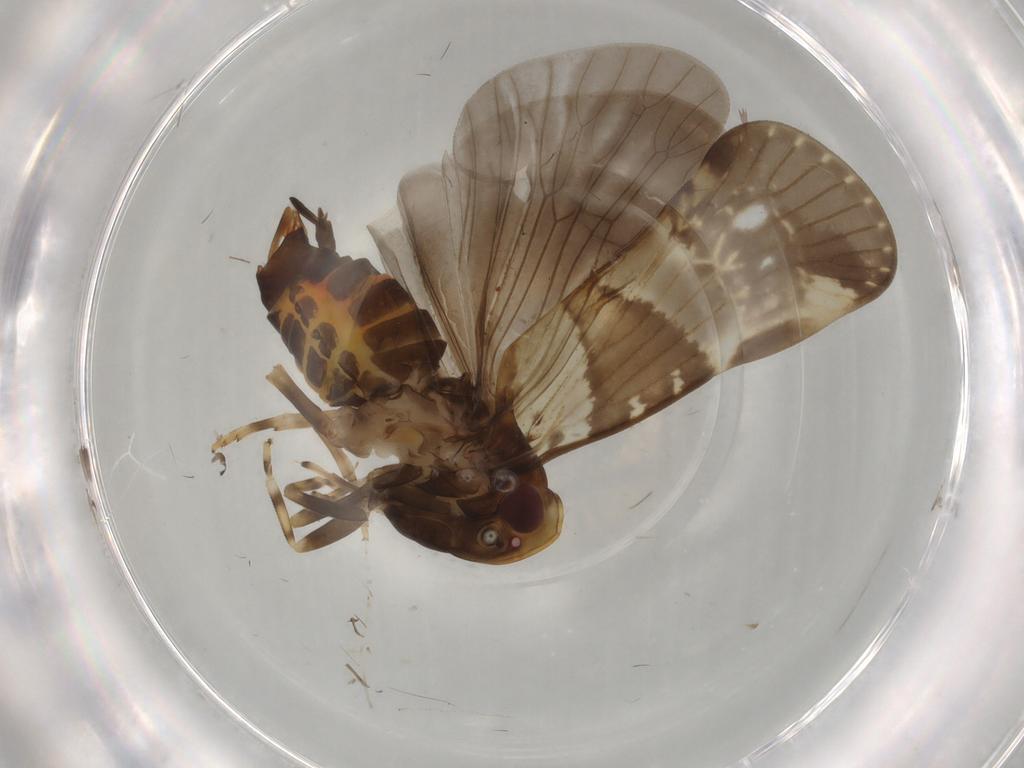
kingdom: Animalia
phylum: Arthropoda
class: Insecta
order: Hemiptera
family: Cixiidae
